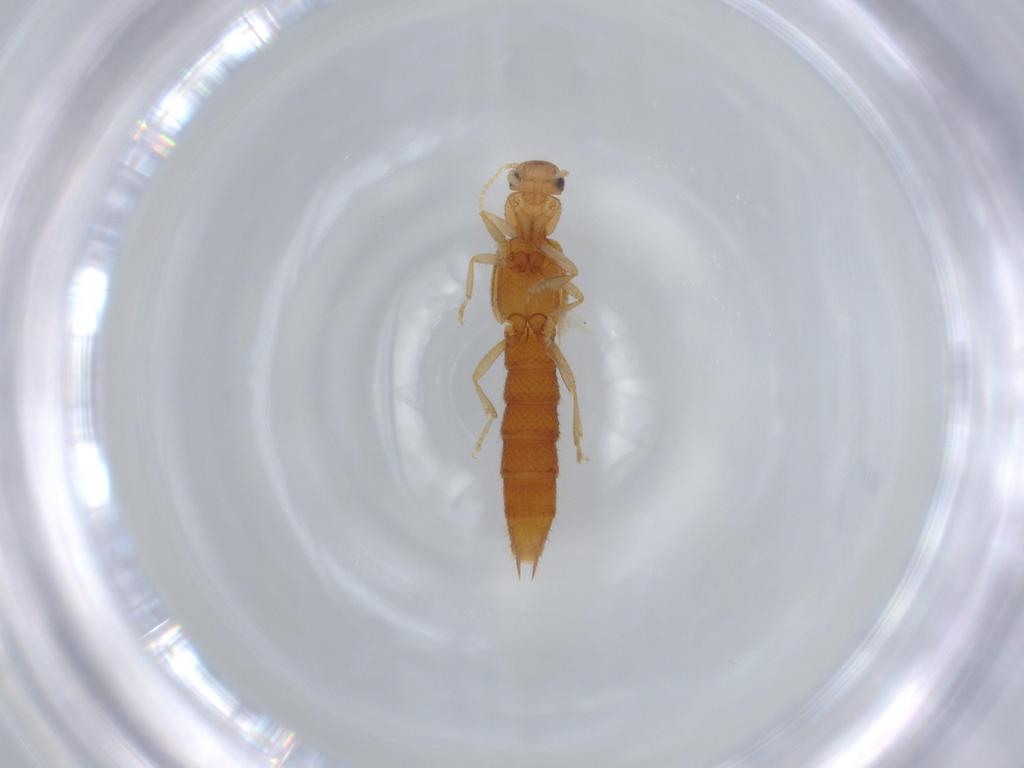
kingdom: Animalia
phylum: Arthropoda
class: Insecta
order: Coleoptera
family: Staphylinidae
